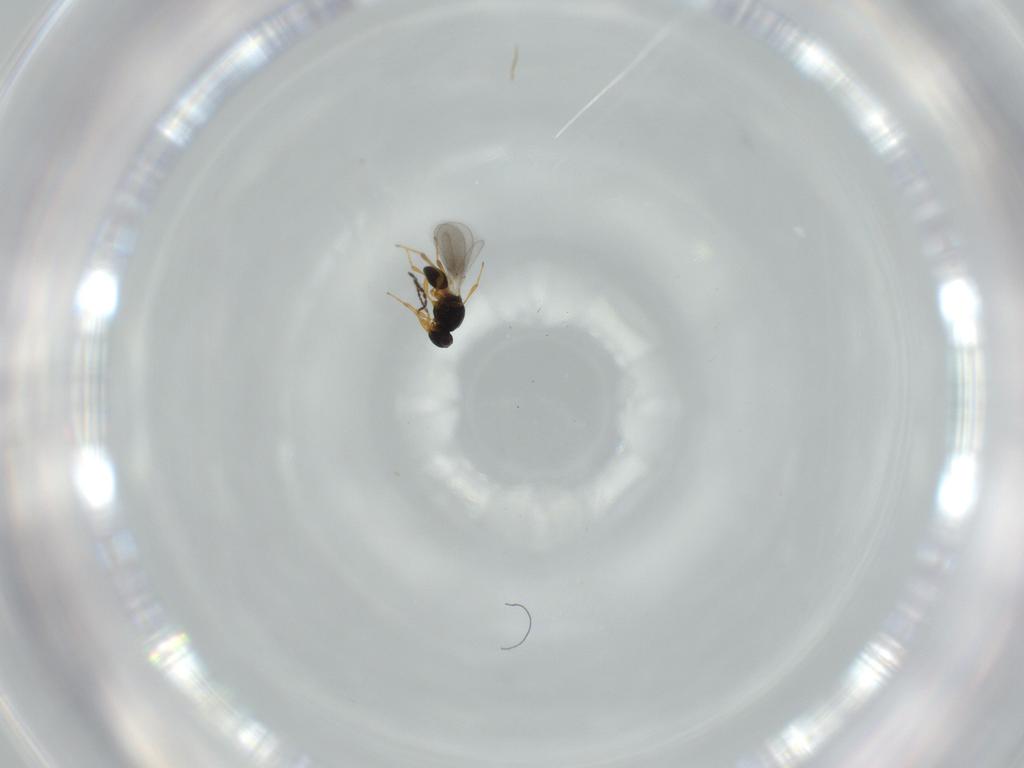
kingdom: Animalia
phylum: Arthropoda
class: Insecta
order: Hymenoptera
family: Platygastridae
